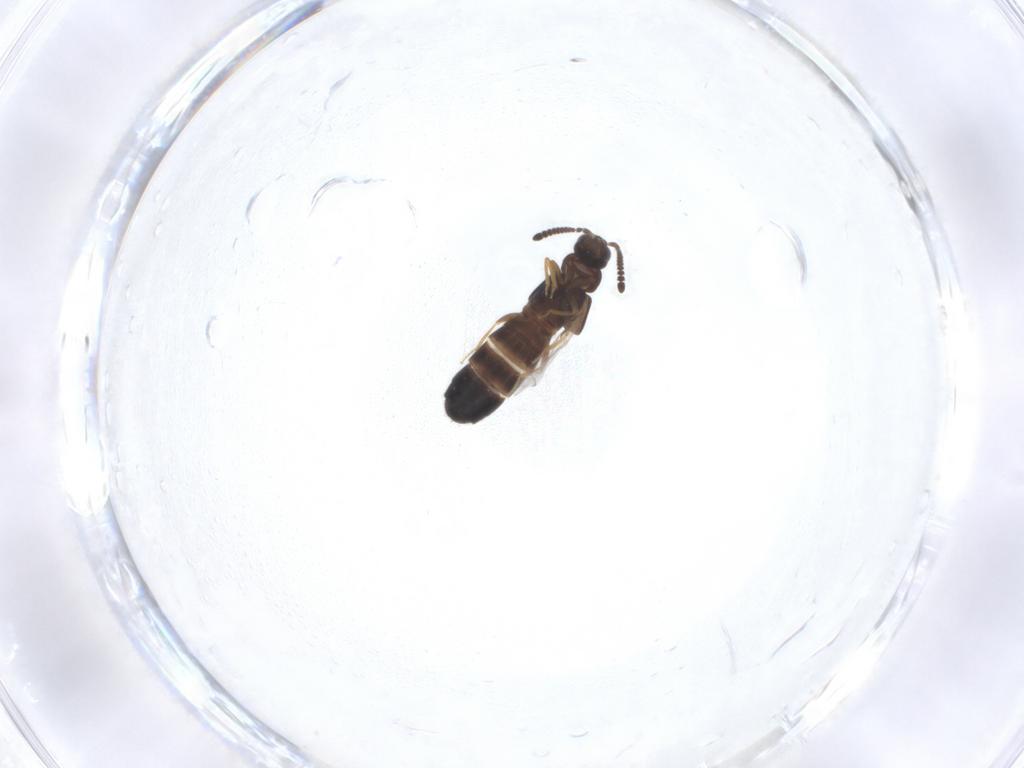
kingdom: Animalia
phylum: Arthropoda
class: Insecta
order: Coleoptera
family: Staphylinidae
